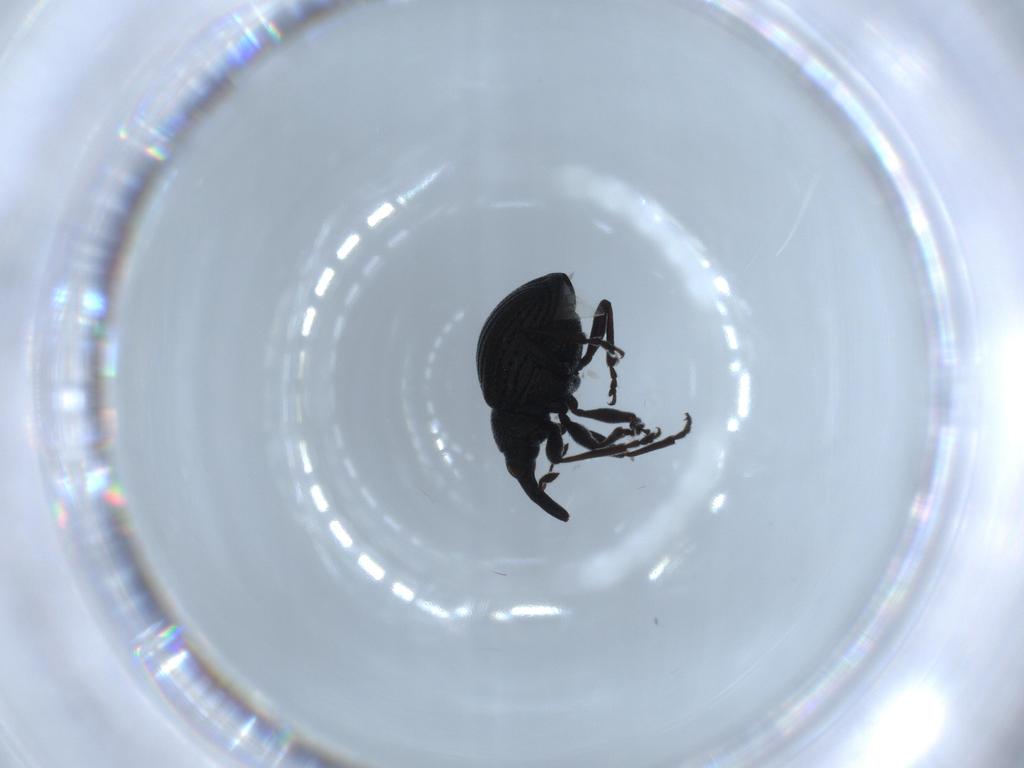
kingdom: Animalia
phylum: Arthropoda
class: Insecta
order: Coleoptera
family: Brentidae
